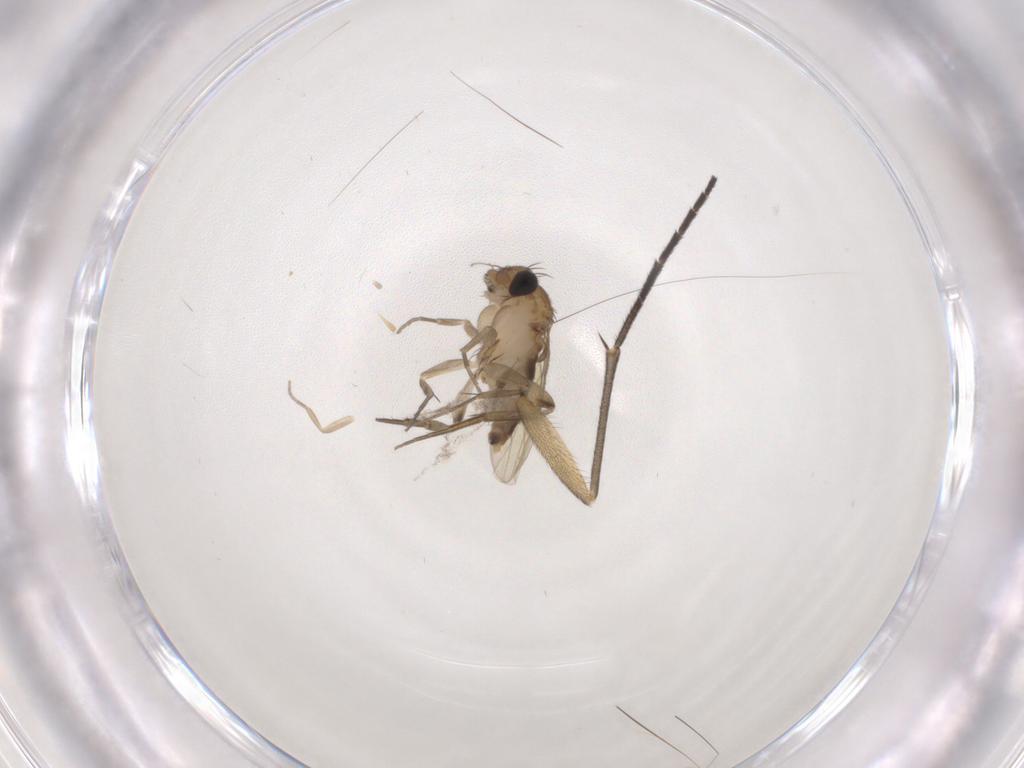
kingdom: Animalia
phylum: Arthropoda
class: Insecta
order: Diptera
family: Phoridae
